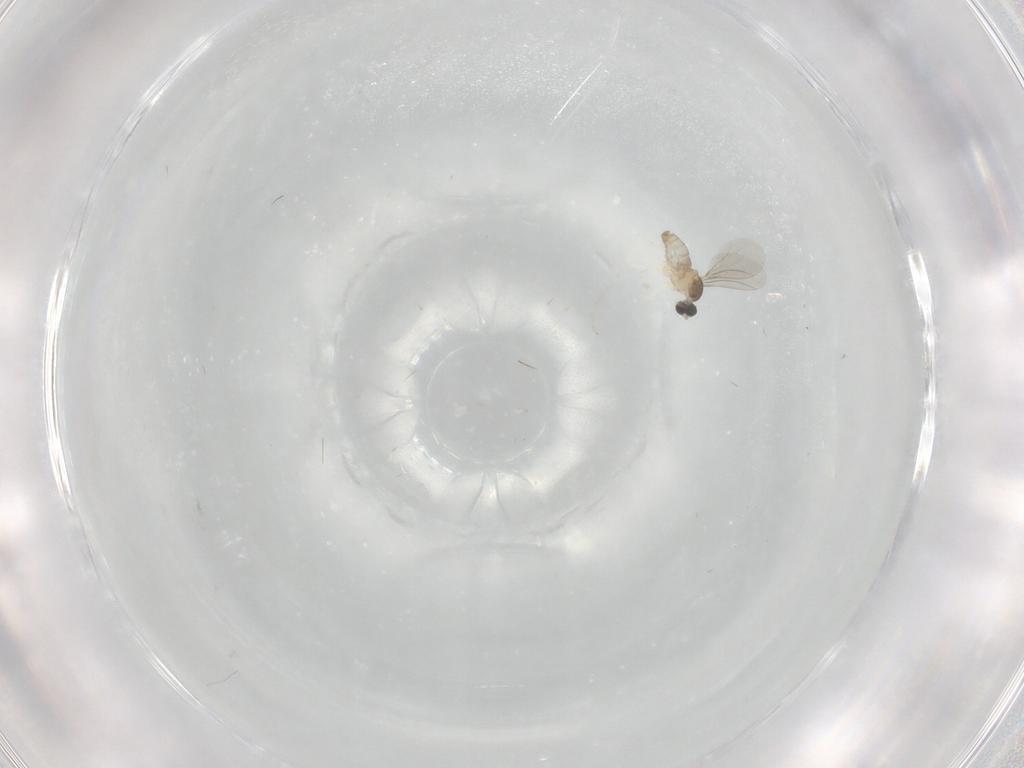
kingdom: Animalia
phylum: Arthropoda
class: Insecta
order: Diptera
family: Cecidomyiidae
